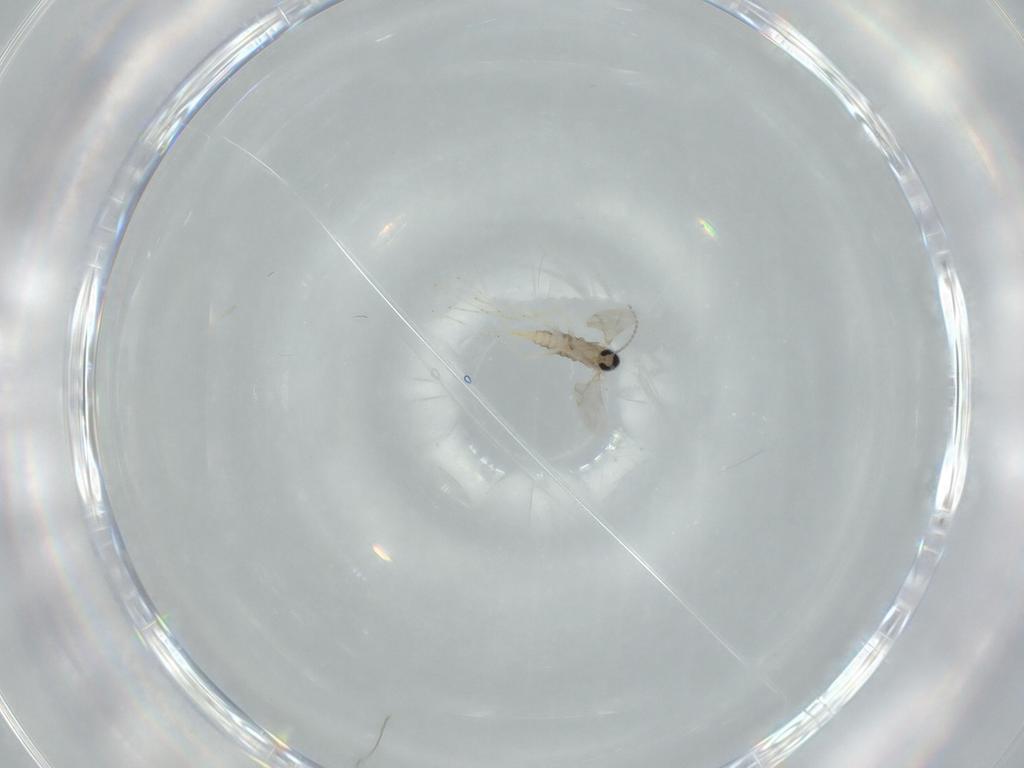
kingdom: Animalia
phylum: Arthropoda
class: Insecta
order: Diptera
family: Cecidomyiidae
